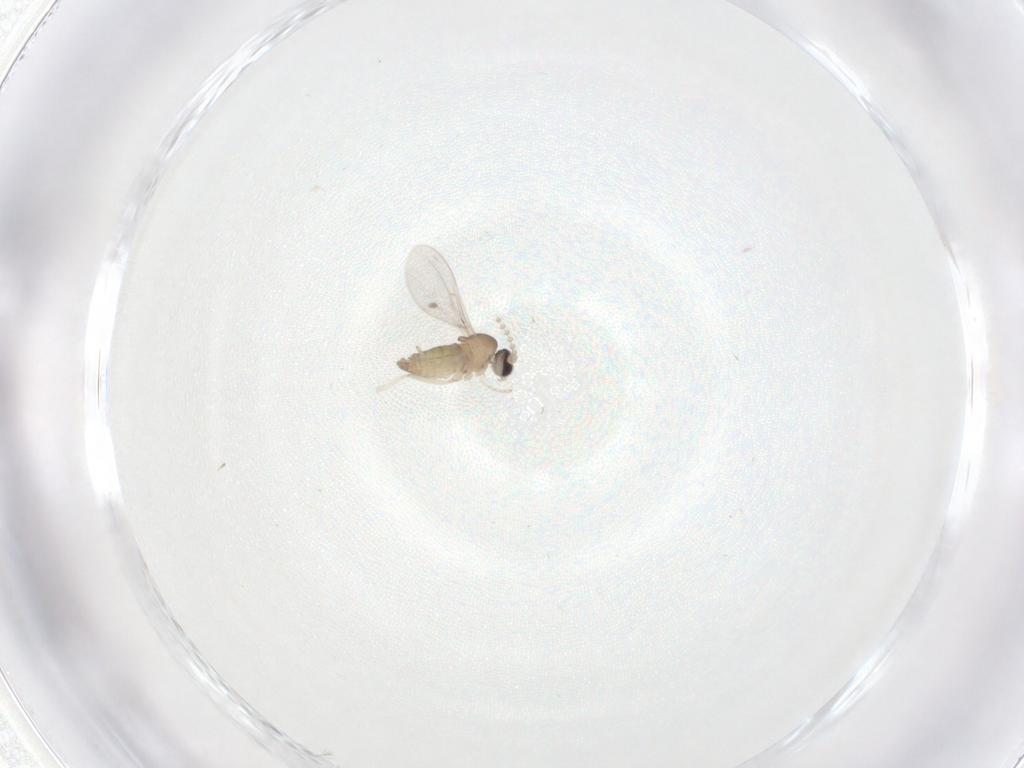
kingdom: Animalia
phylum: Arthropoda
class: Insecta
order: Diptera
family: Cecidomyiidae
